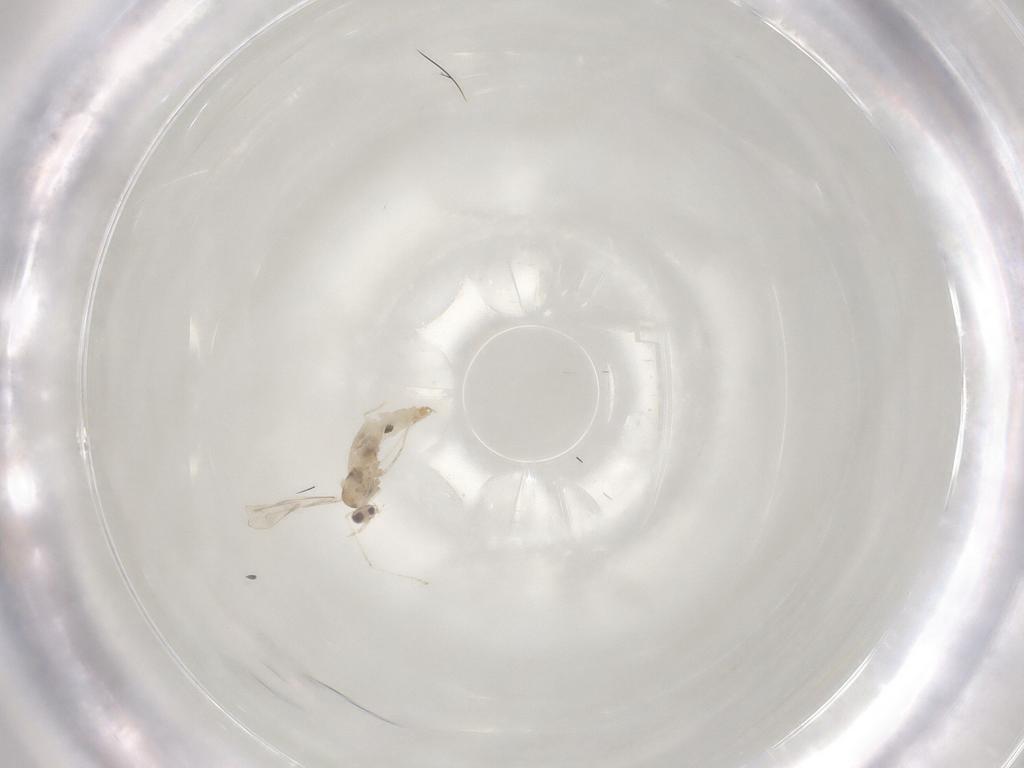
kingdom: Animalia
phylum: Arthropoda
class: Insecta
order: Diptera
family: Cecidomyiidae
